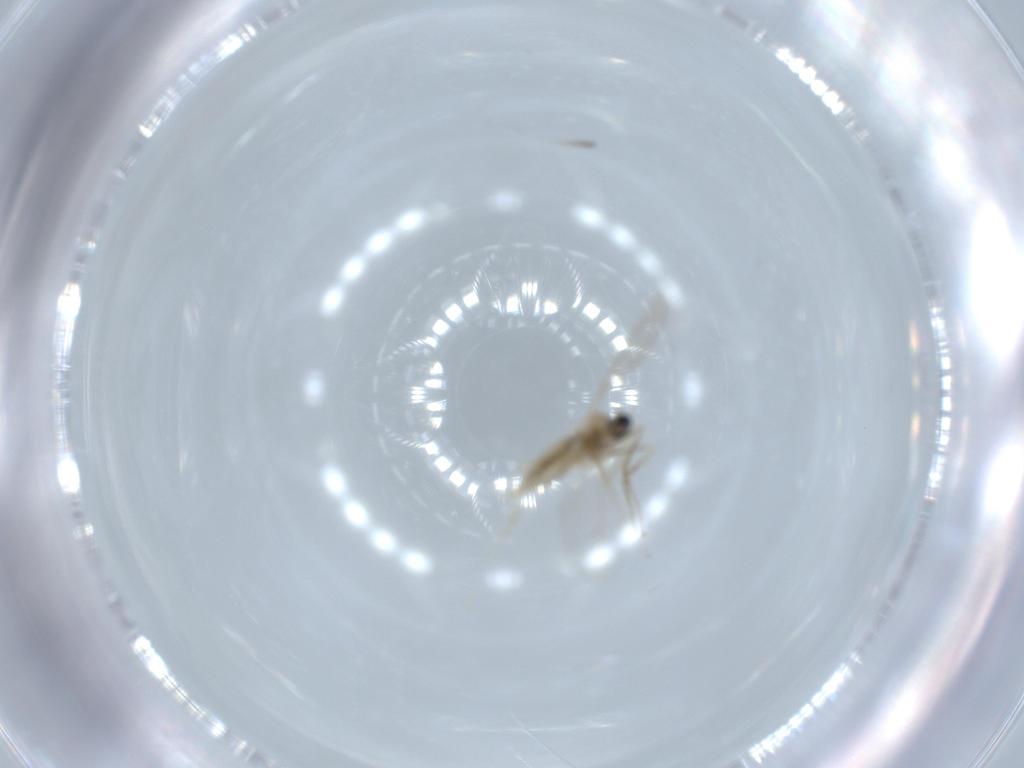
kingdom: Animalia
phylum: Arthropoda
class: Insecta
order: Diptera
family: Cecidomyiidae
